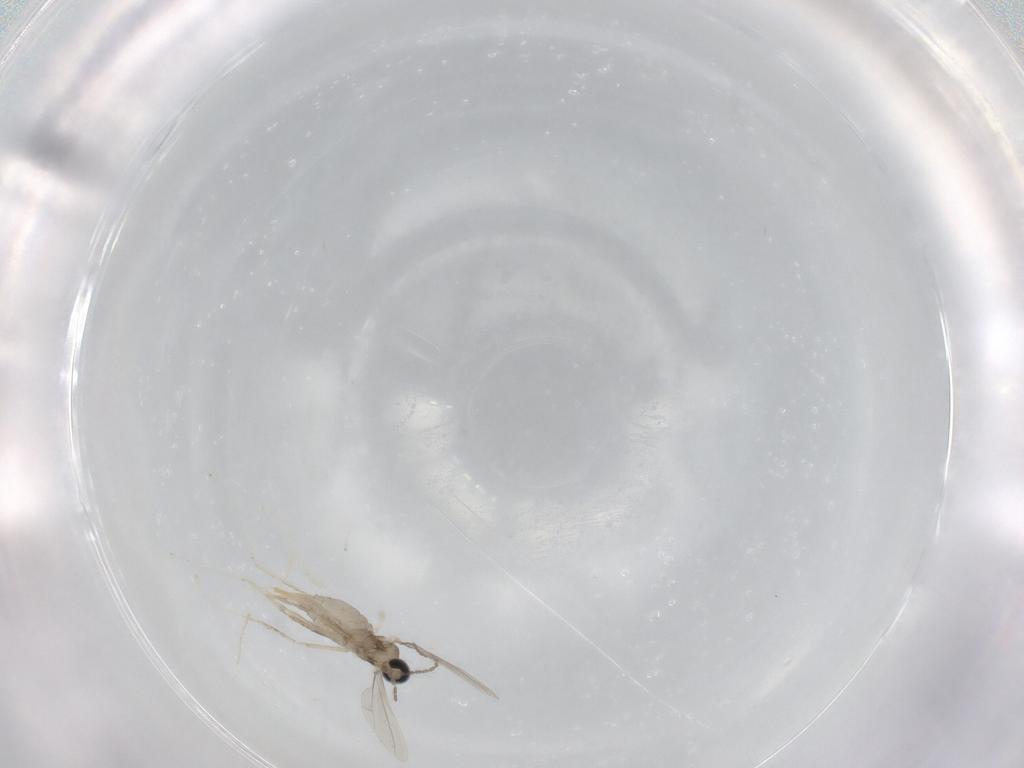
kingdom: Animalia
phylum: Arthropoda
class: Insecta
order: Diptera
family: Cecidomyiidae
